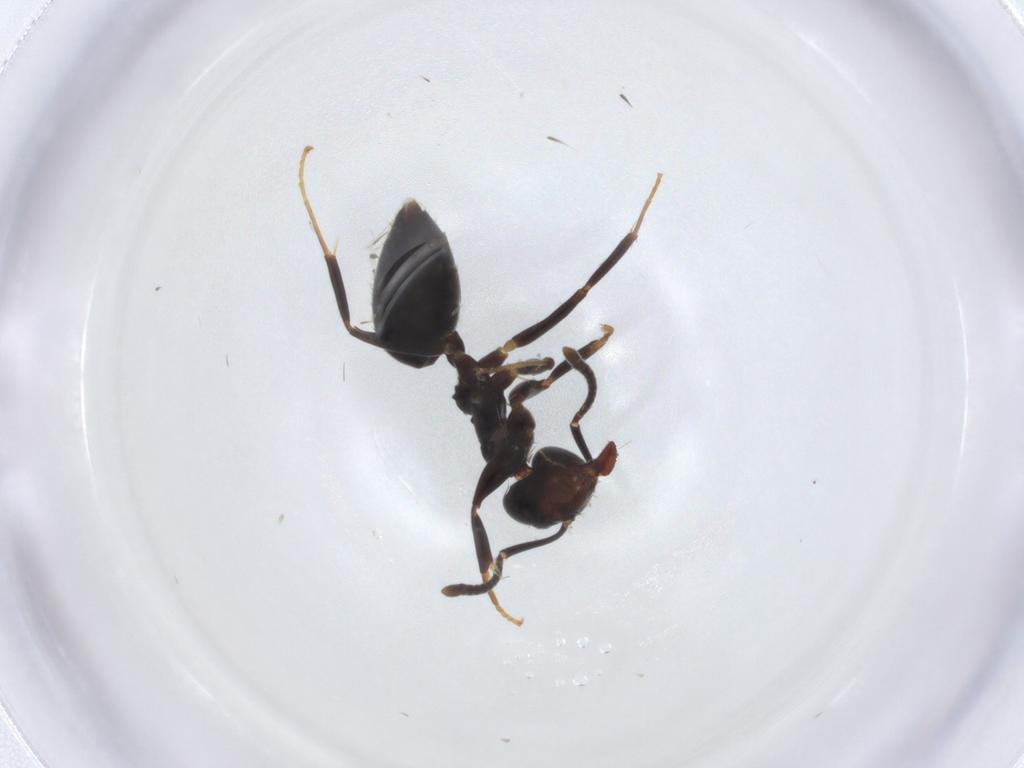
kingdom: Animalia
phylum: Arthropoda
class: Insecta
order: Hymenoptera
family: Formicidae
